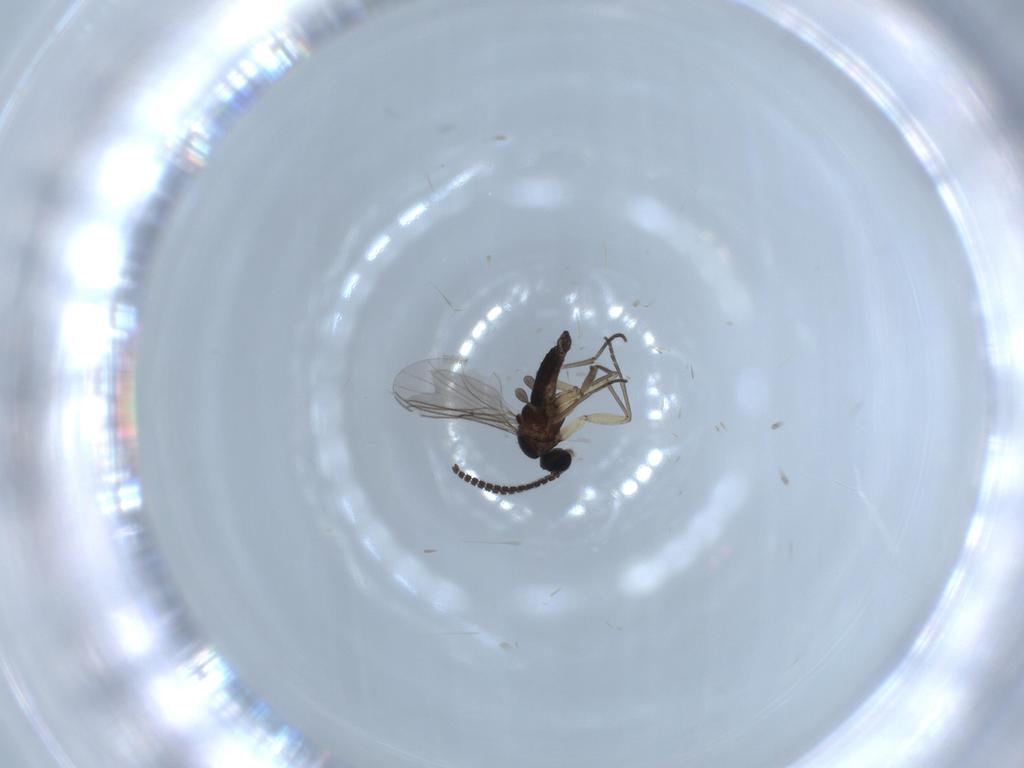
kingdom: Animalia
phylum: Arthropoda
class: Insecta
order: Diptera
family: Sciaridae
